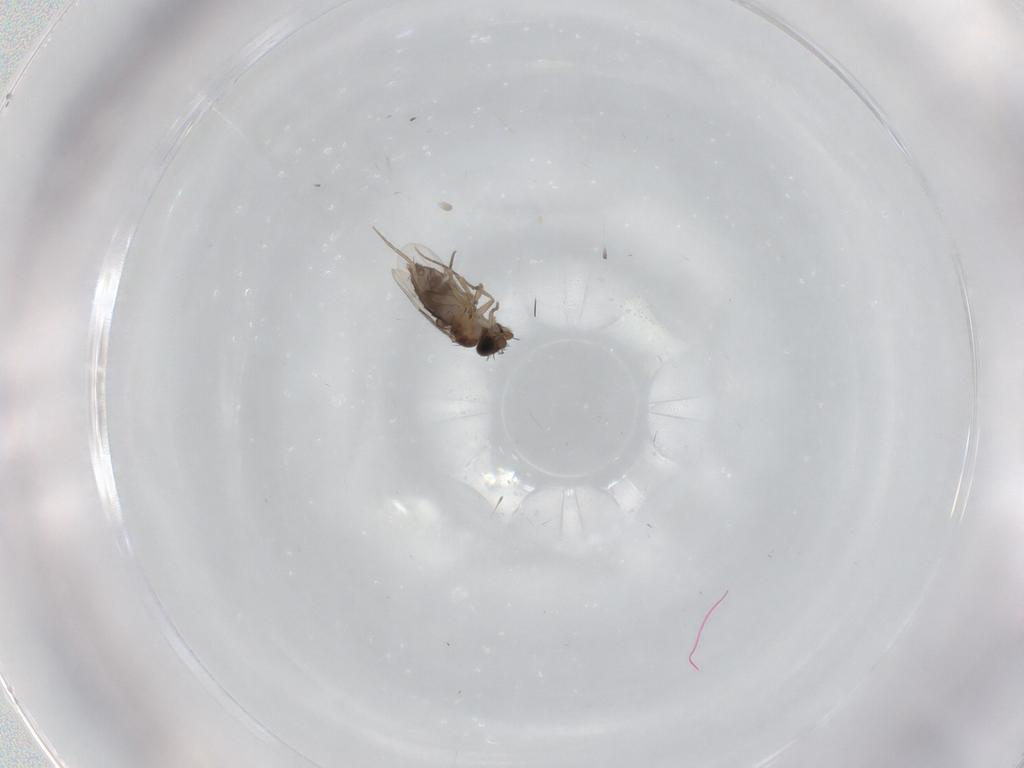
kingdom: Animalia
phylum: Arthropoda
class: Insecta
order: Diptera
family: Phoridae
